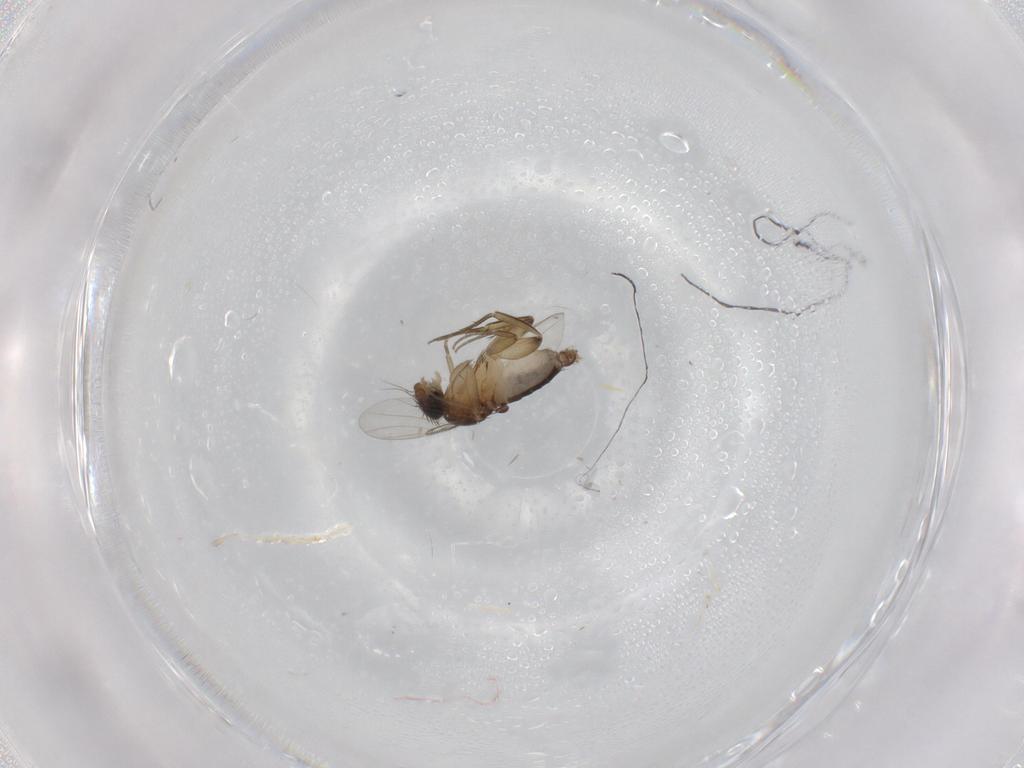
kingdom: Animalia
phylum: Arthropoda
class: Insecta
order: Diptera
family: Phoridae
